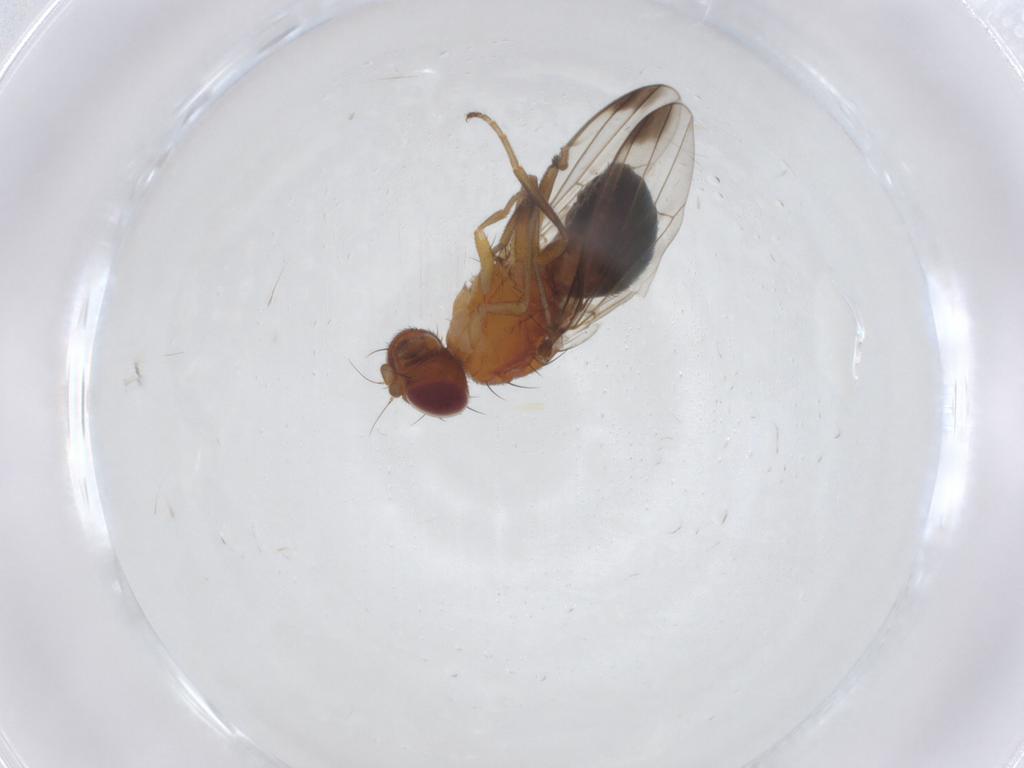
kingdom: Animalia
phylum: Arthropoda
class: Insecta
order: Diptera
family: Piophilidae
